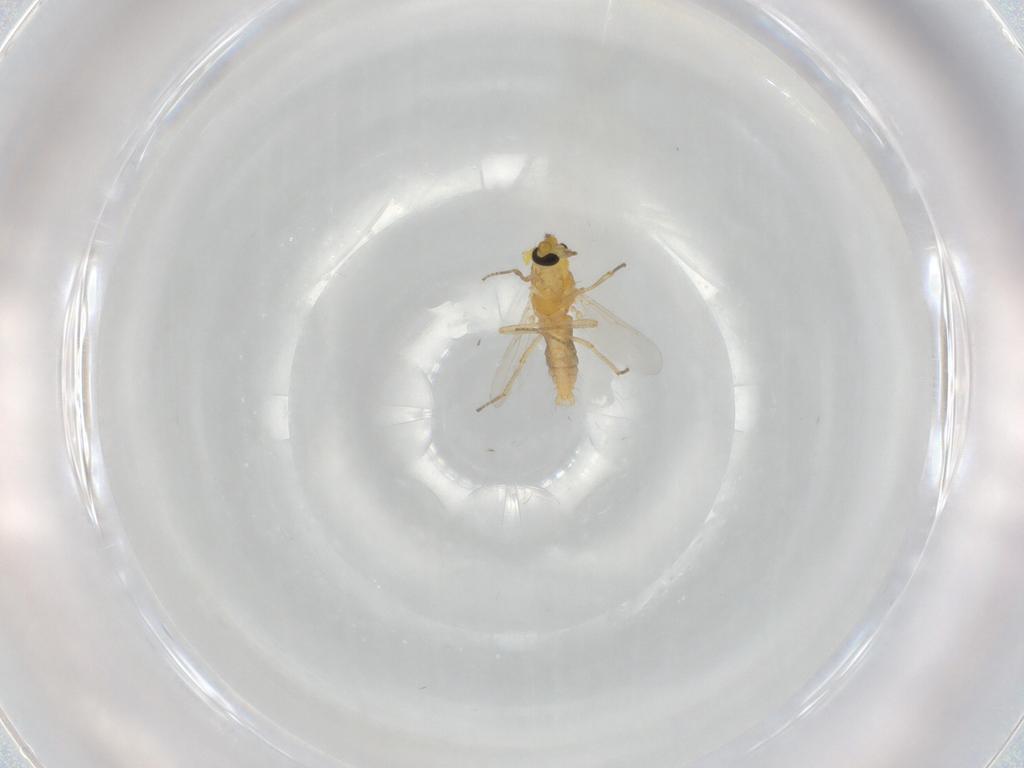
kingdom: Animalia
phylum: Arthropoda
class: Insecta
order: Diptera
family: Ceratopogonidae
